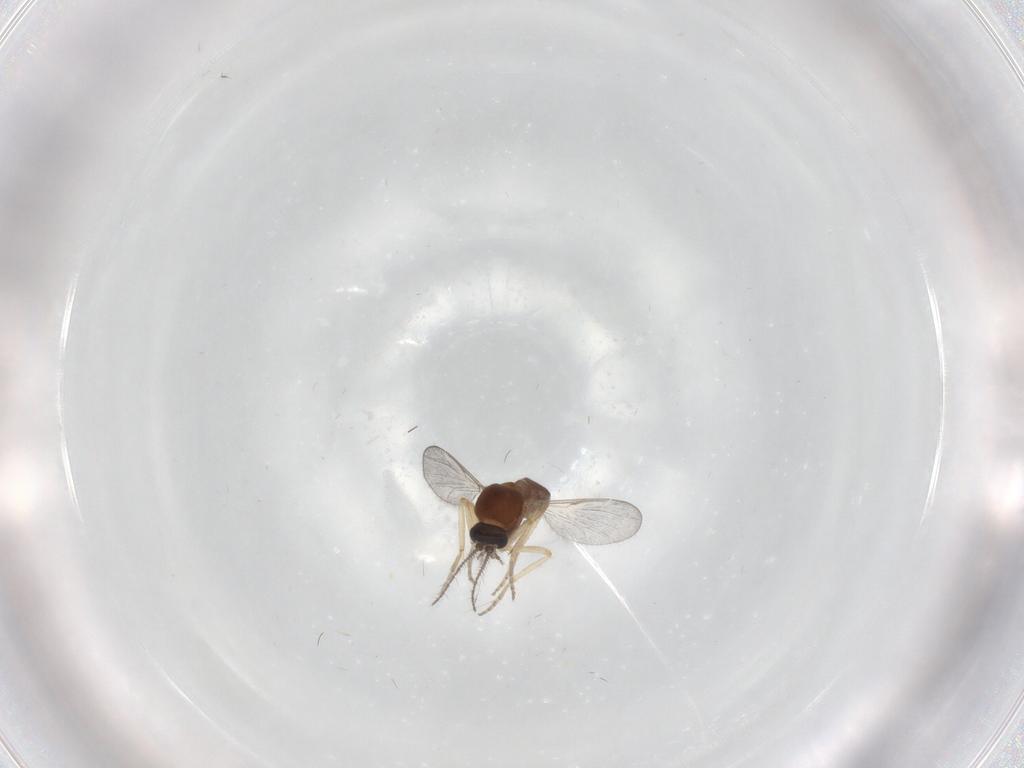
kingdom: Animalia
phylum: Arthropoda
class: Insecta
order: Diptera
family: Ceratopogonidae
